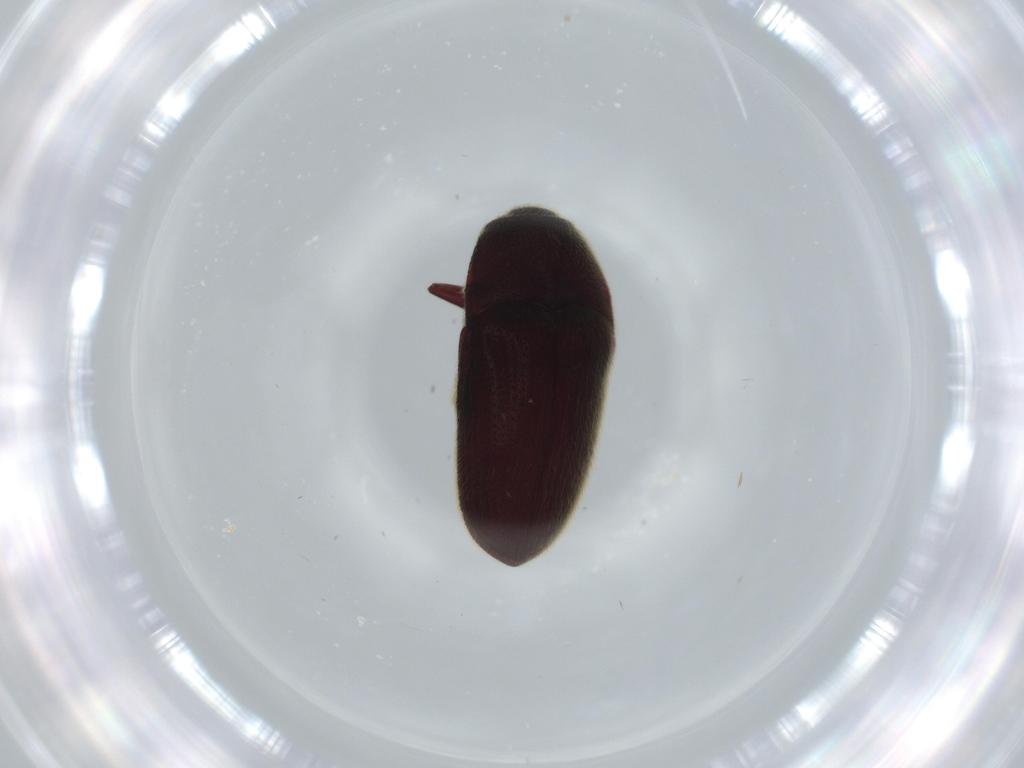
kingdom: Animalia
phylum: Arthropoda
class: Insecta
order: Coleoptera
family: Throscidae
